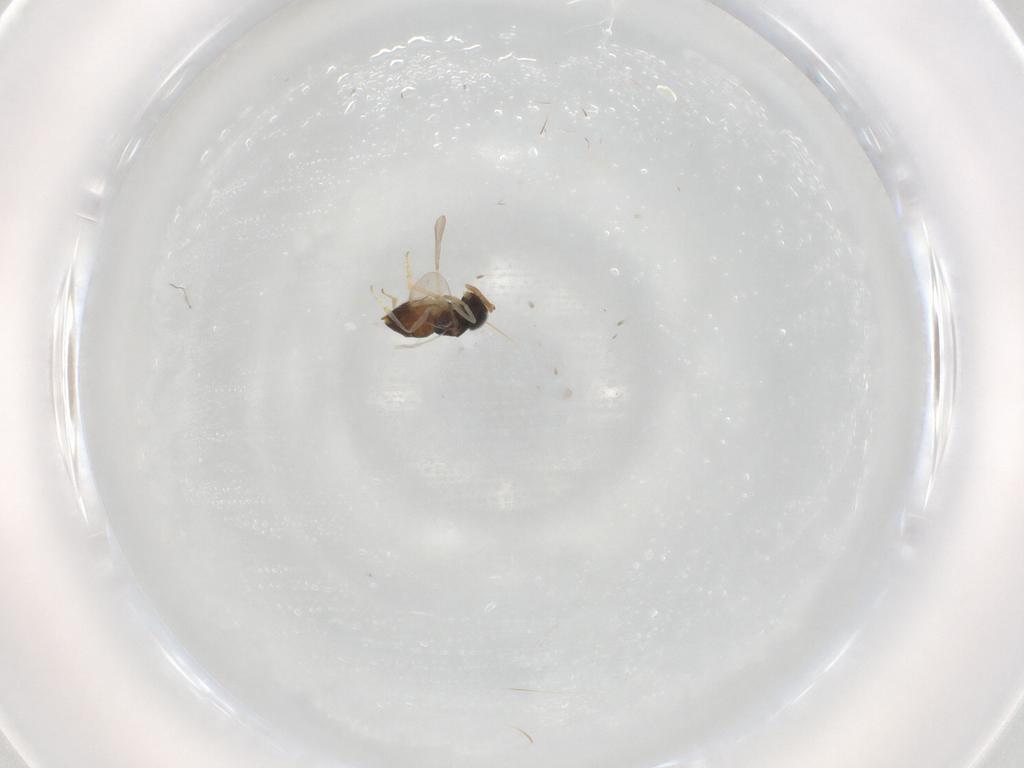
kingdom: Animalia
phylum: Arthropoda
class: Insecta
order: Hymenoptera
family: Mymaridae
